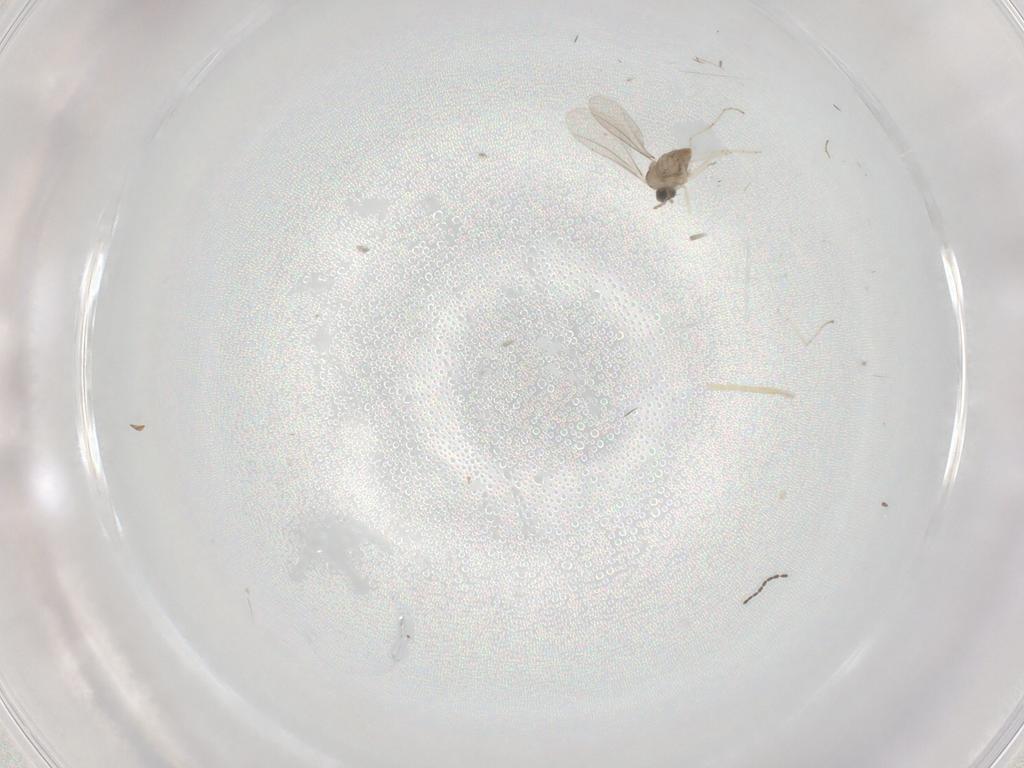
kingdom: Animalia
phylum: Arthropoda
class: Insecta
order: Diptera
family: Cecidomyiidae
